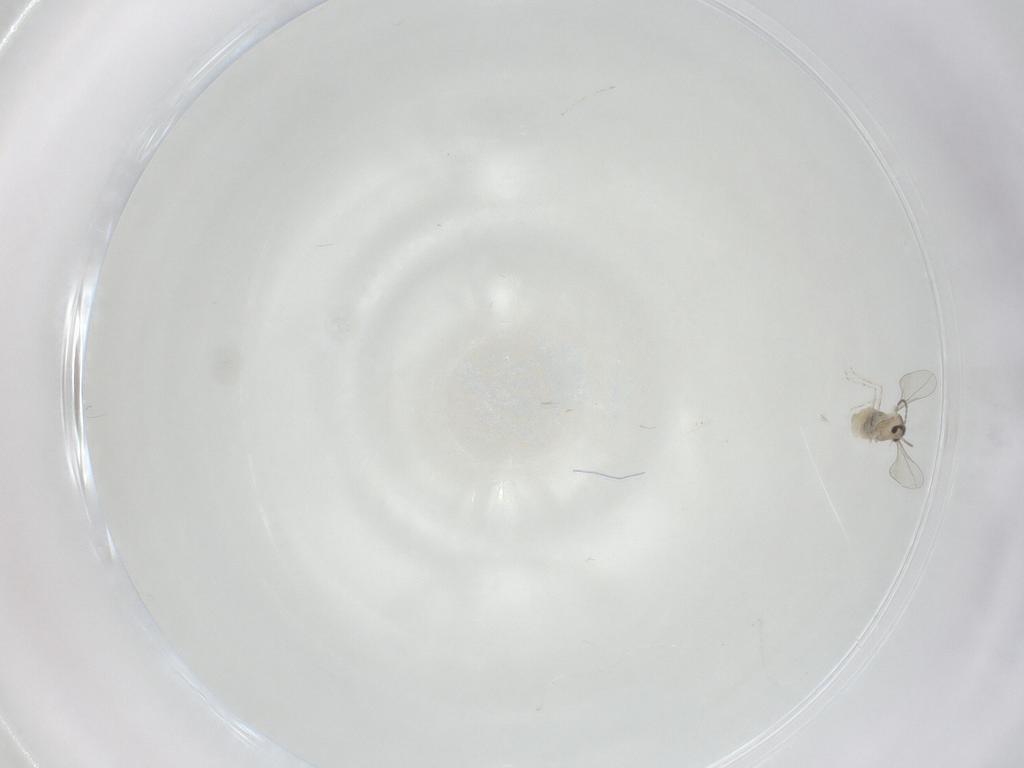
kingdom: Animalia
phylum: Arthropoda
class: Insecta
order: Diptera
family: Cecidomyiidae
